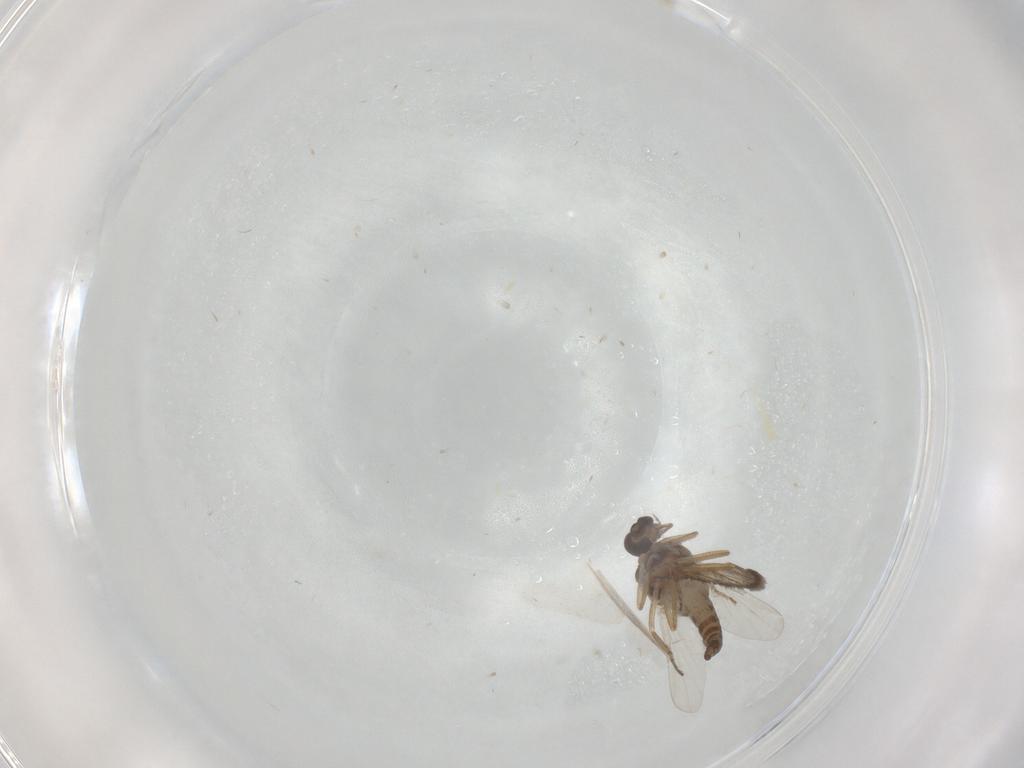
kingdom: Animalia
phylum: Arthropoda
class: Insecta
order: Diptera
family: Ceratopogonidae
